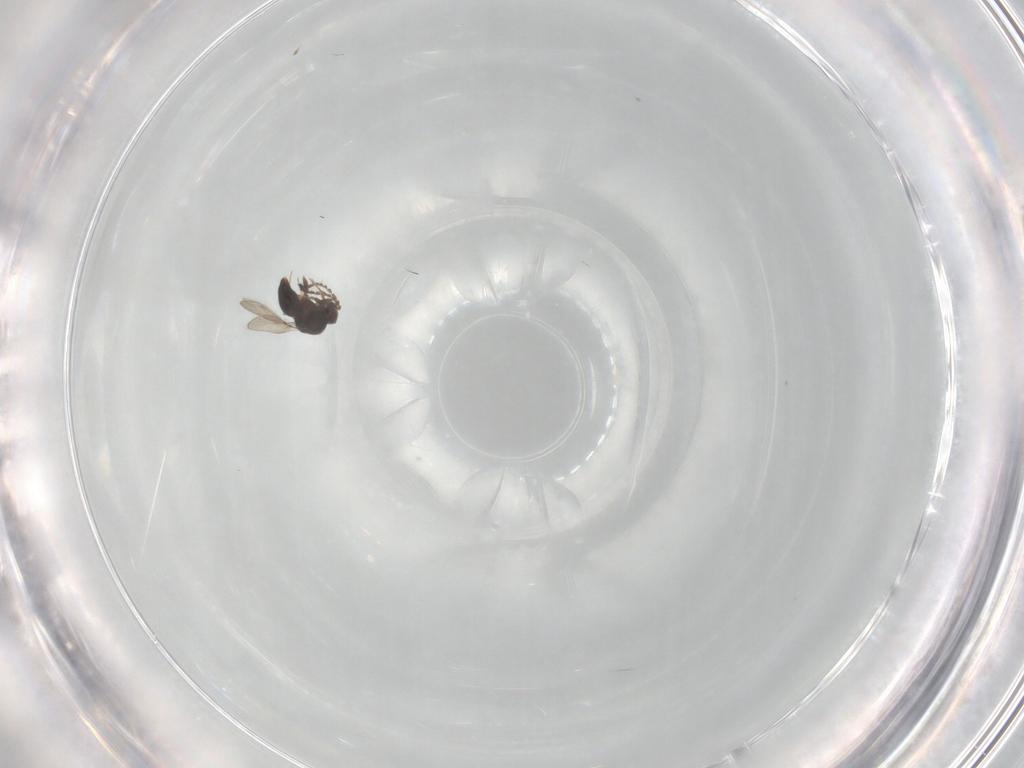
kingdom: Animalia
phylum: Arthropoda
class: Insecta
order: Hymenoptera
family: Ichneumonidae
